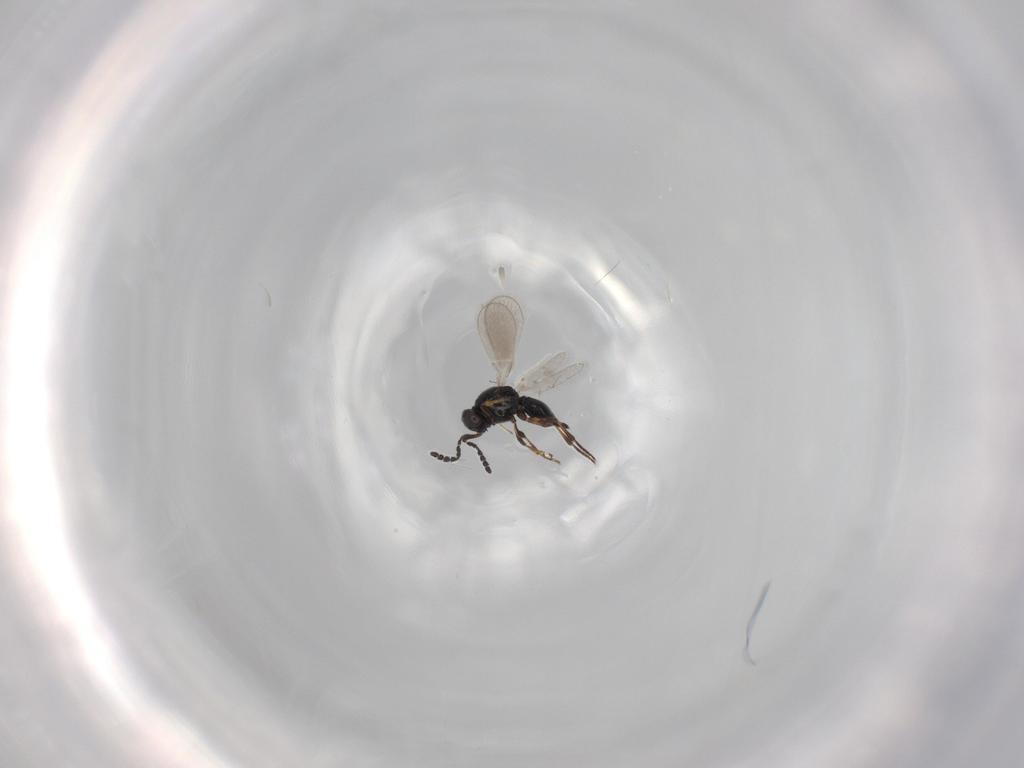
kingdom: Animalia
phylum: Arthropoda
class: Insecta
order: Hymenoptera
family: Platygastridae
